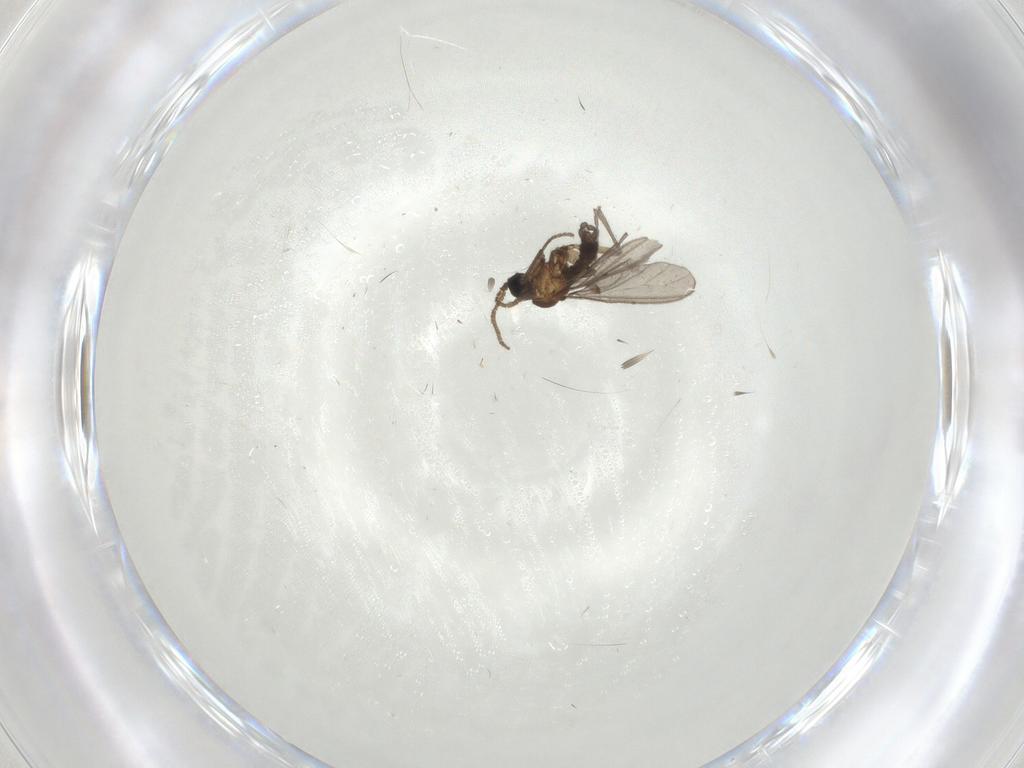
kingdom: Animalia
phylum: Arthropoda
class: Insecta
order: Diptera
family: Sciaridae
